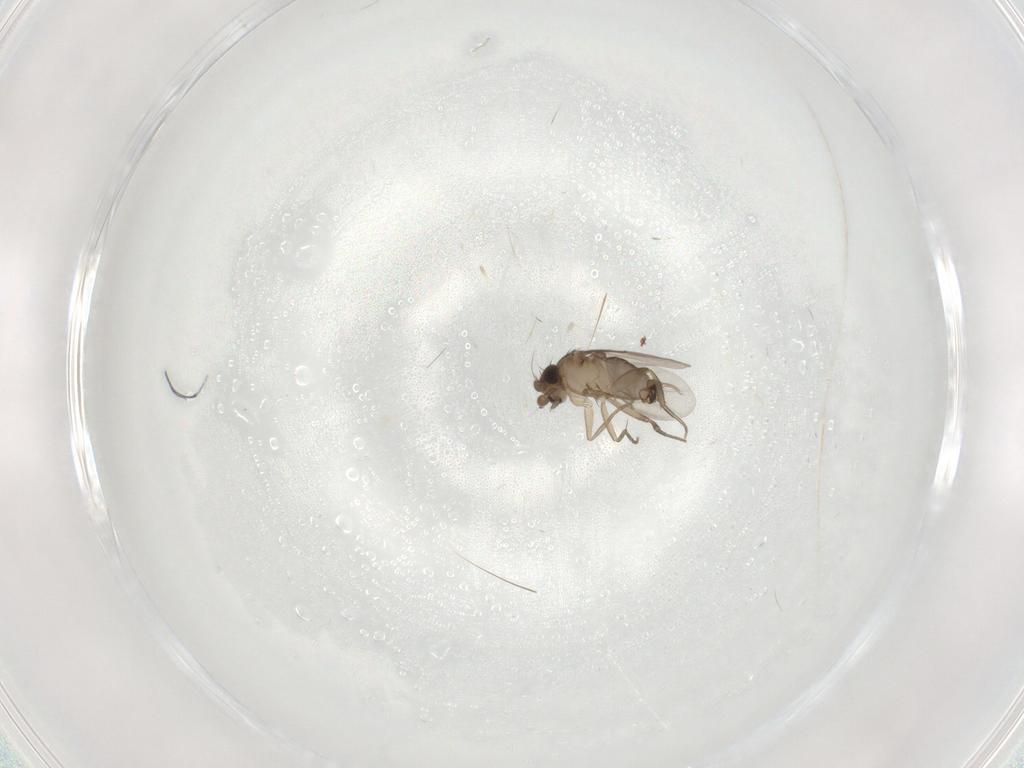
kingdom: Animalia
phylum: Arthropoda
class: Insecta
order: Diptera
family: Phoridae
